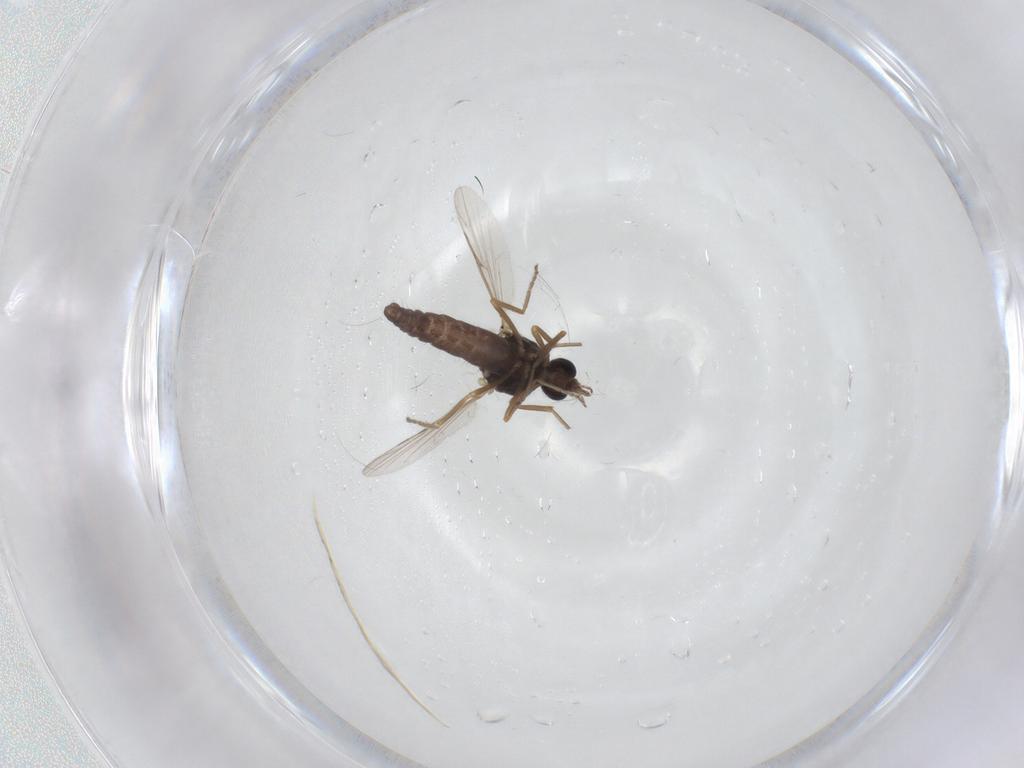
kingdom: Animalia
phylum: Arthropoda
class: Insecta
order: Diptera
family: Ceratopogonidae
